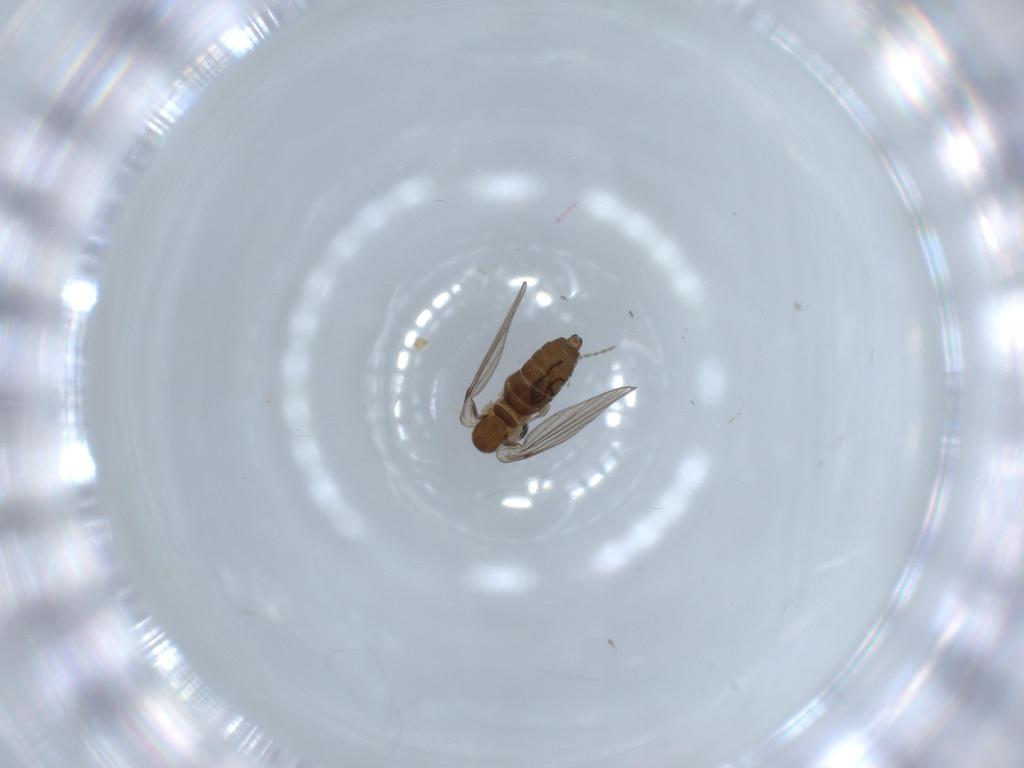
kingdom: Animalia
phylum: Arthropoda
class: Insecta
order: Diptera
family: Psychodidae
